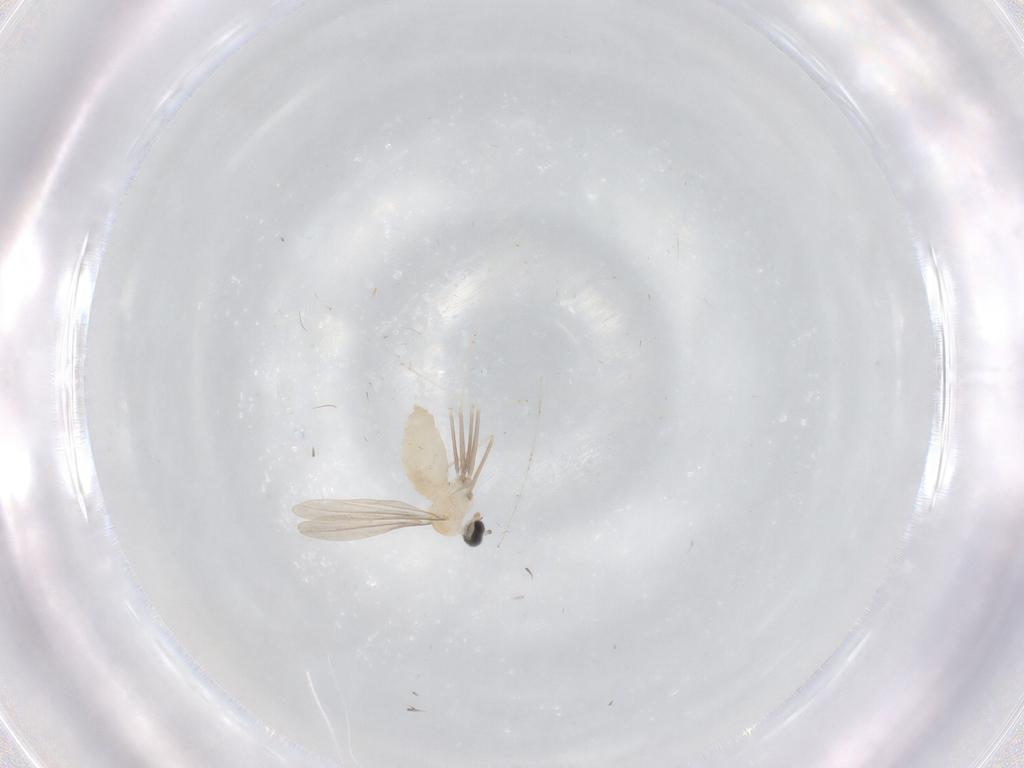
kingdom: Animalia
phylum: Arthropoda
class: Insecta
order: Diptera
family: Cecidomyiidae
